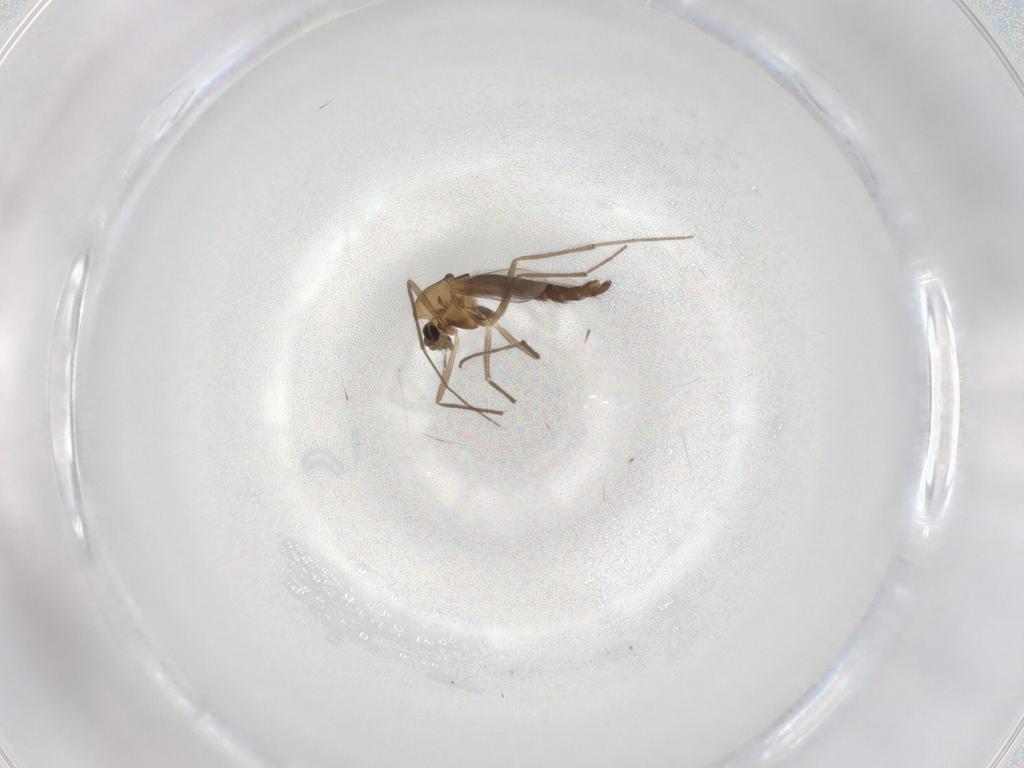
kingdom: Animalia
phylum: Arthropoda
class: Insecta
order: Diptera
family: Chironomidae
